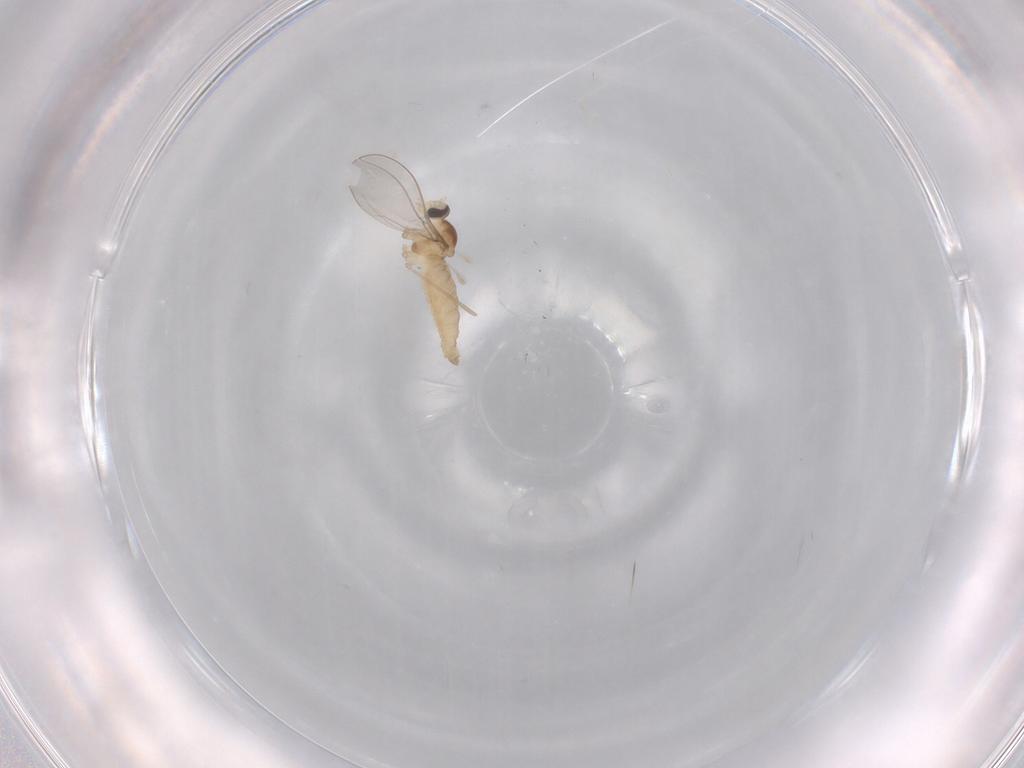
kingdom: Animalia
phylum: Arthropoda
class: Insecta
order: Diptera
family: Cecidomyiidae
